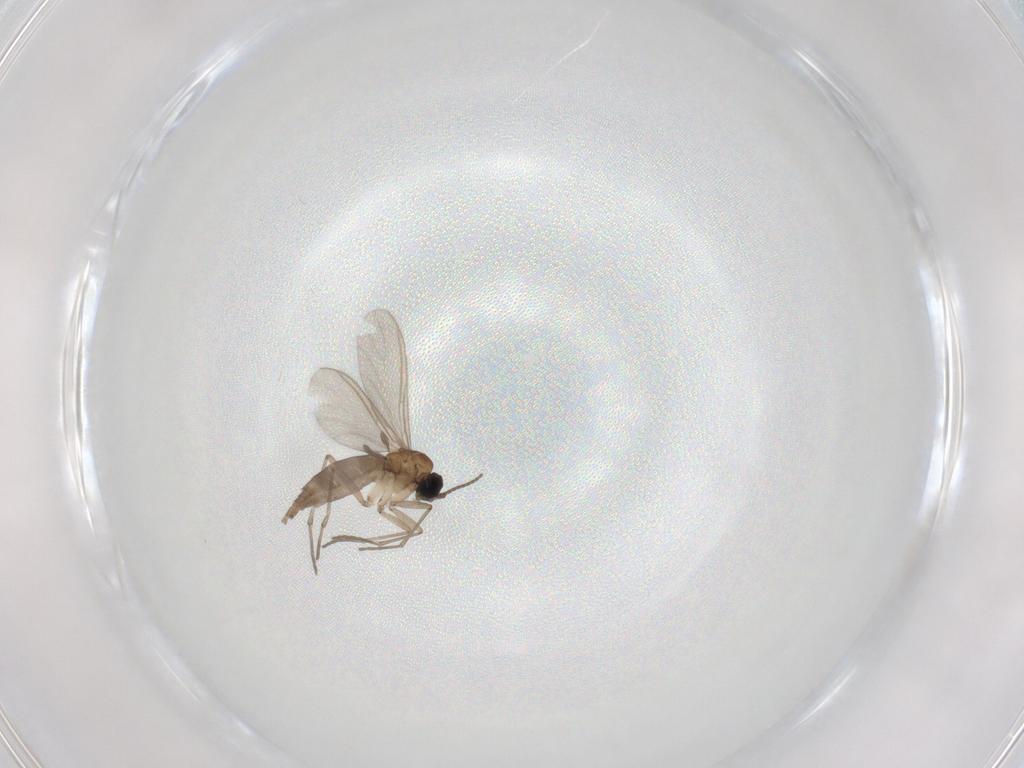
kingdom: Animalia
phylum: Arthropoda
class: Insecta
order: Diptera
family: Sciaridae
